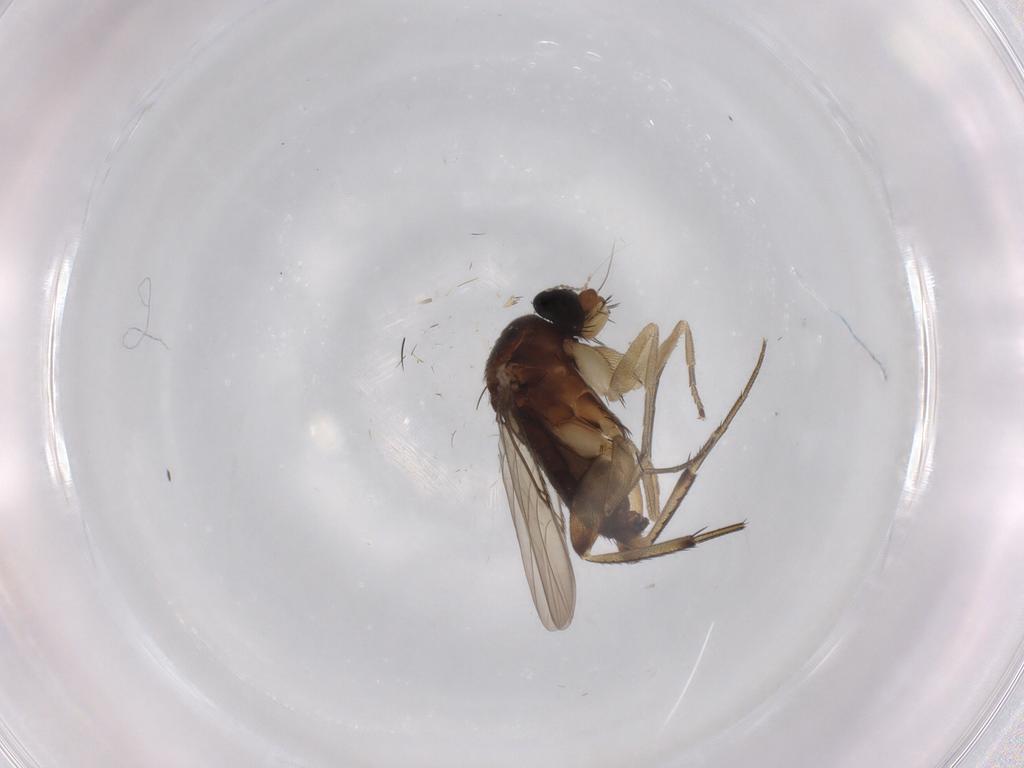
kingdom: Animalia
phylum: Arthropoda
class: Insecta
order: Diptera
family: Phoridae
